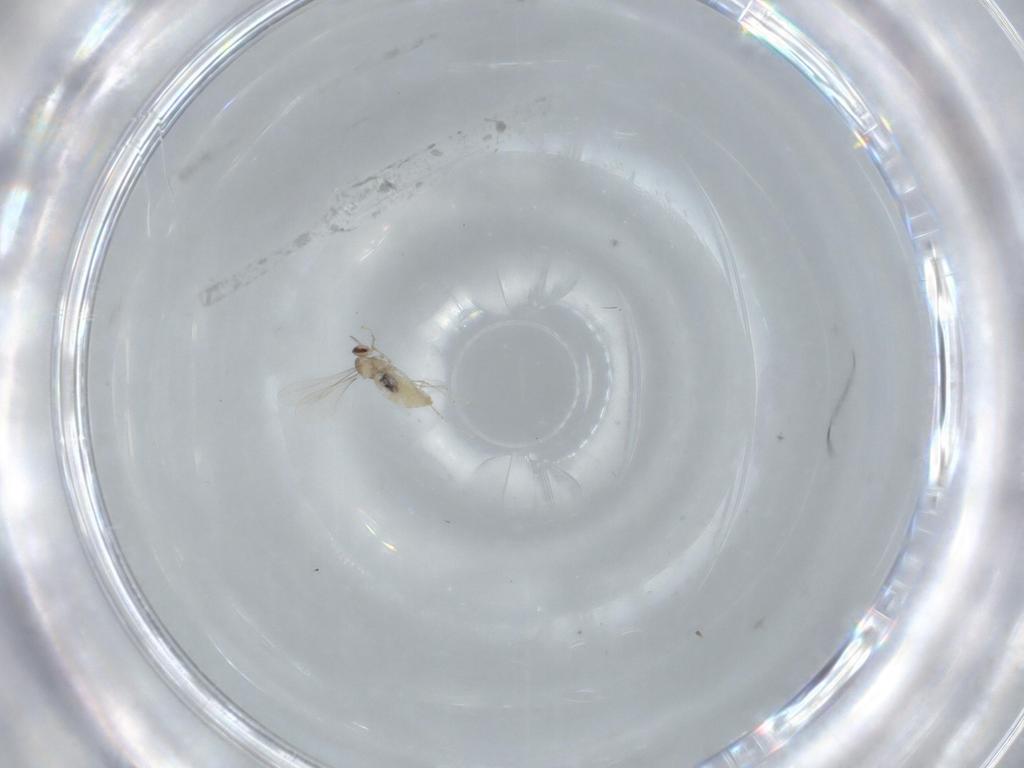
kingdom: Animalia
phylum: Arthropoda
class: Insecta
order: Diptera
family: Cecidomyiidae
